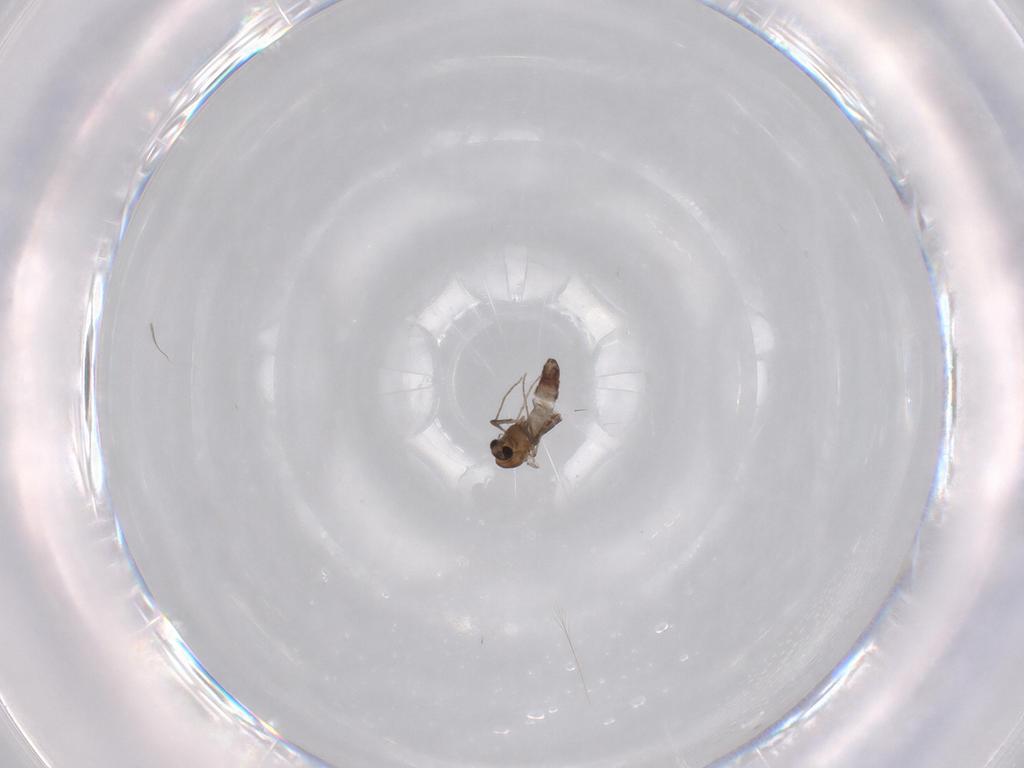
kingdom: Animalia
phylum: Arthropoda
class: Insecta
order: Diptera
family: Chironomidae
